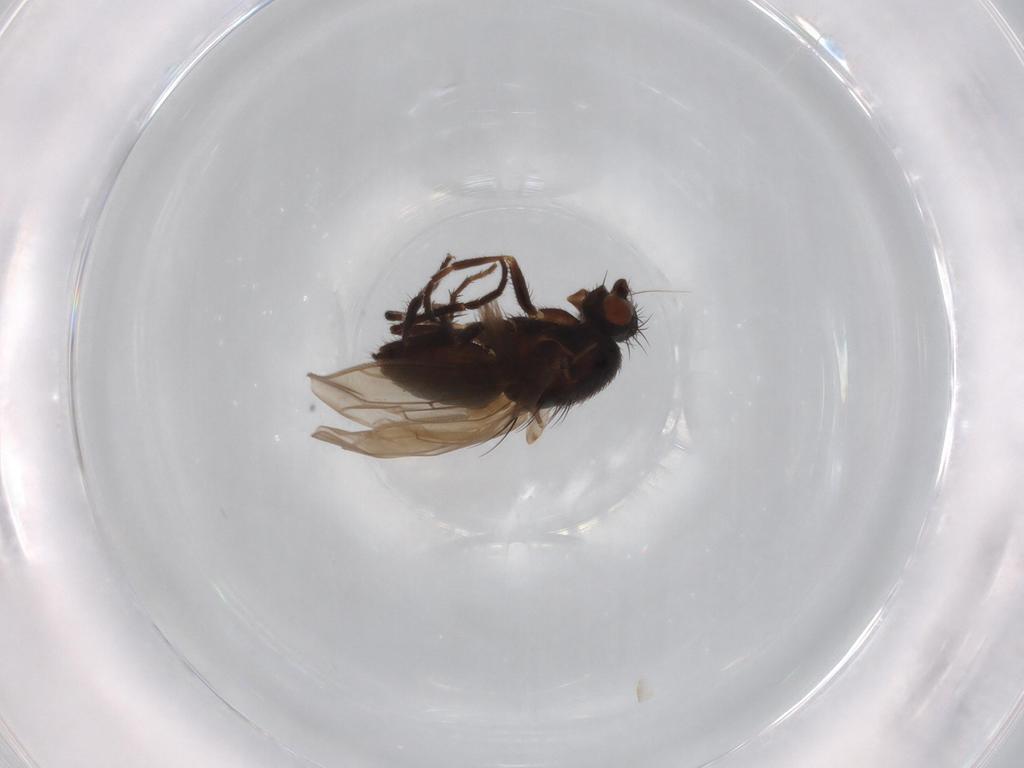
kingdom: Animalia
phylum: Arthropoda
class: Insecta
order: Diptera
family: Sphaeroceridae
